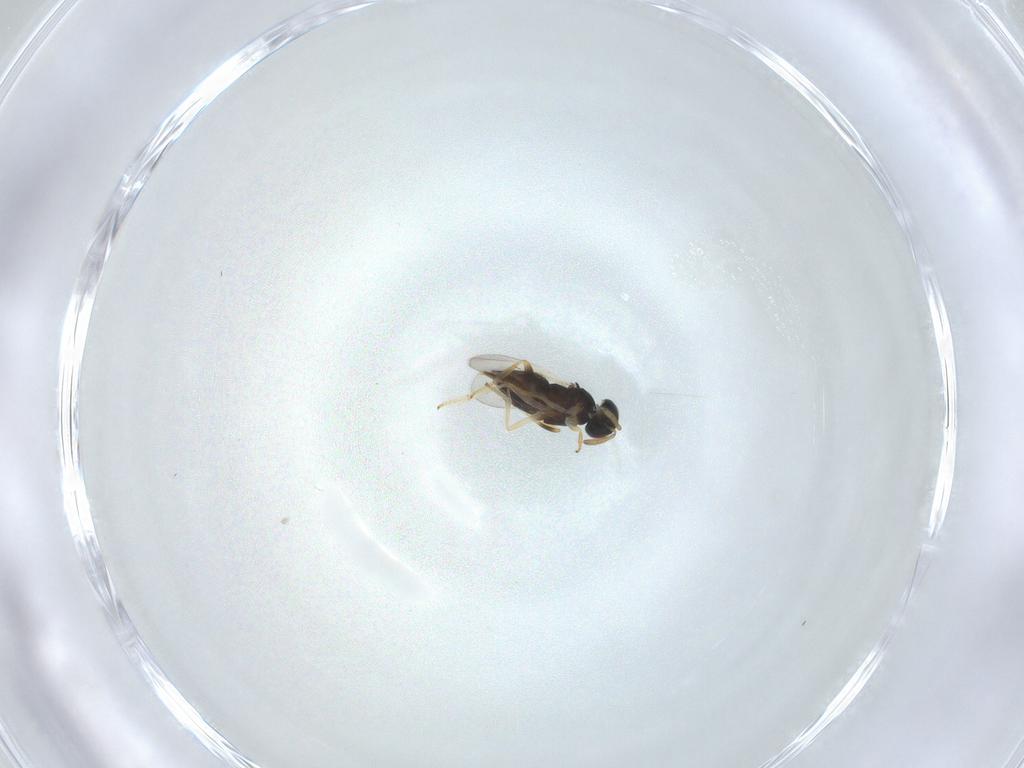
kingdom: Animalia
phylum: Arthropoda
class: Insecta
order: Diptera
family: Phoridae
